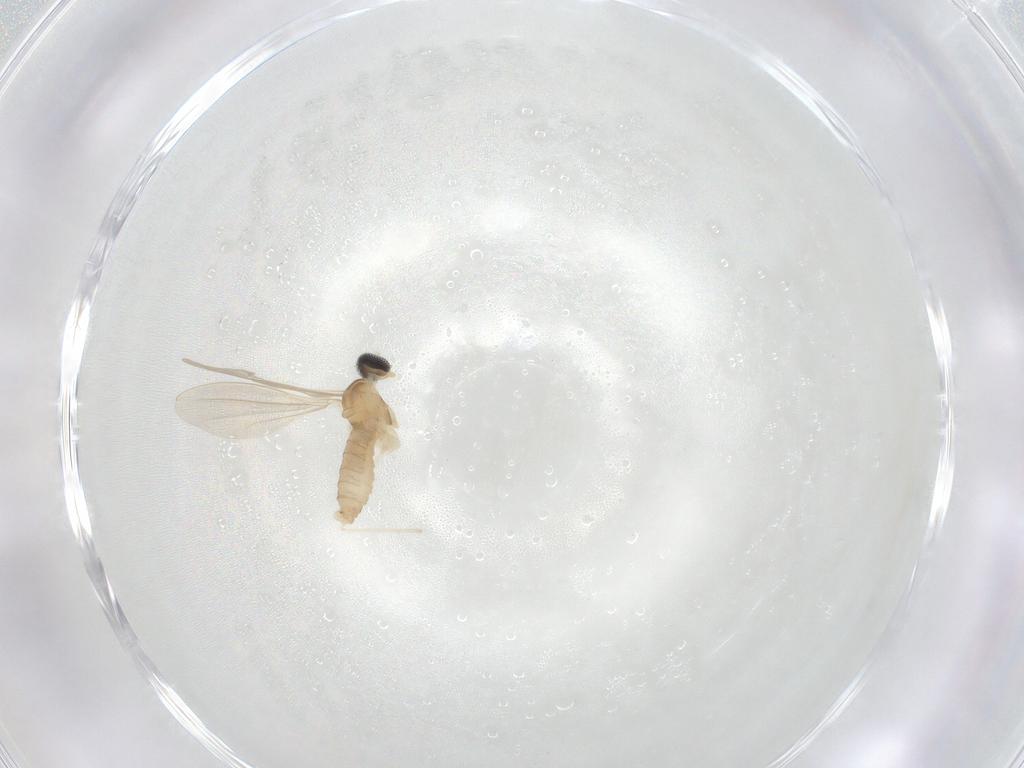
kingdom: Animalia
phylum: Arthropoda
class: Insecta
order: Diptera
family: Cecidomyiidae
